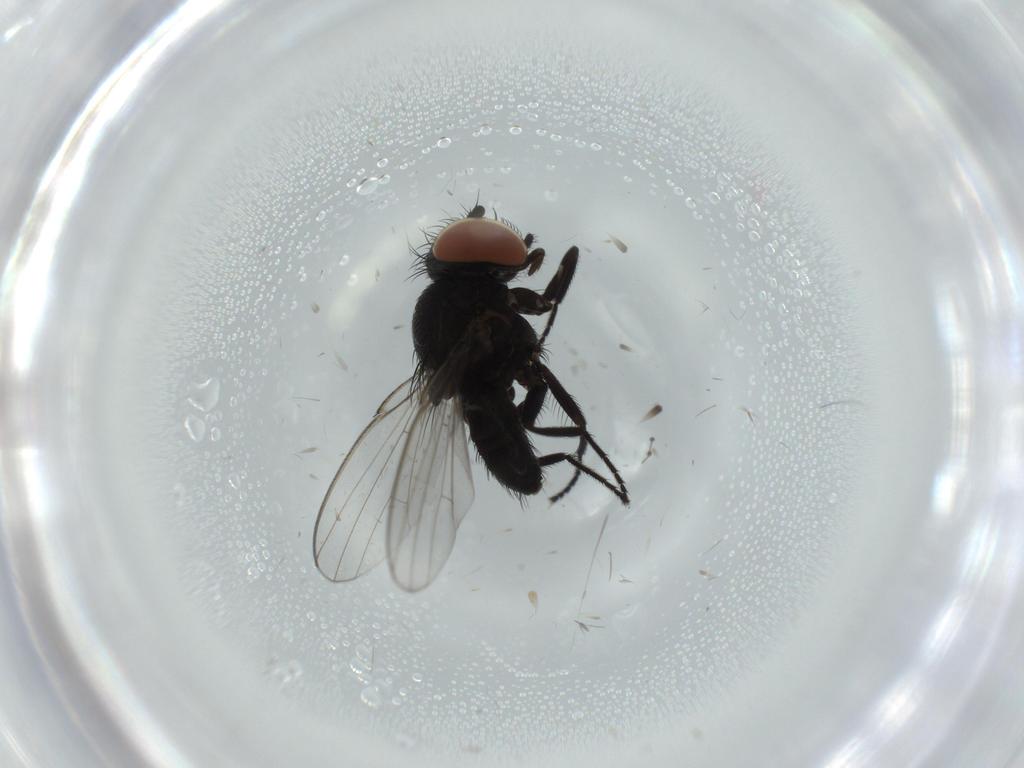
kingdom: Animalia
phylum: Arthropoda
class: Insecta
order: Diptera
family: Milichiidae
